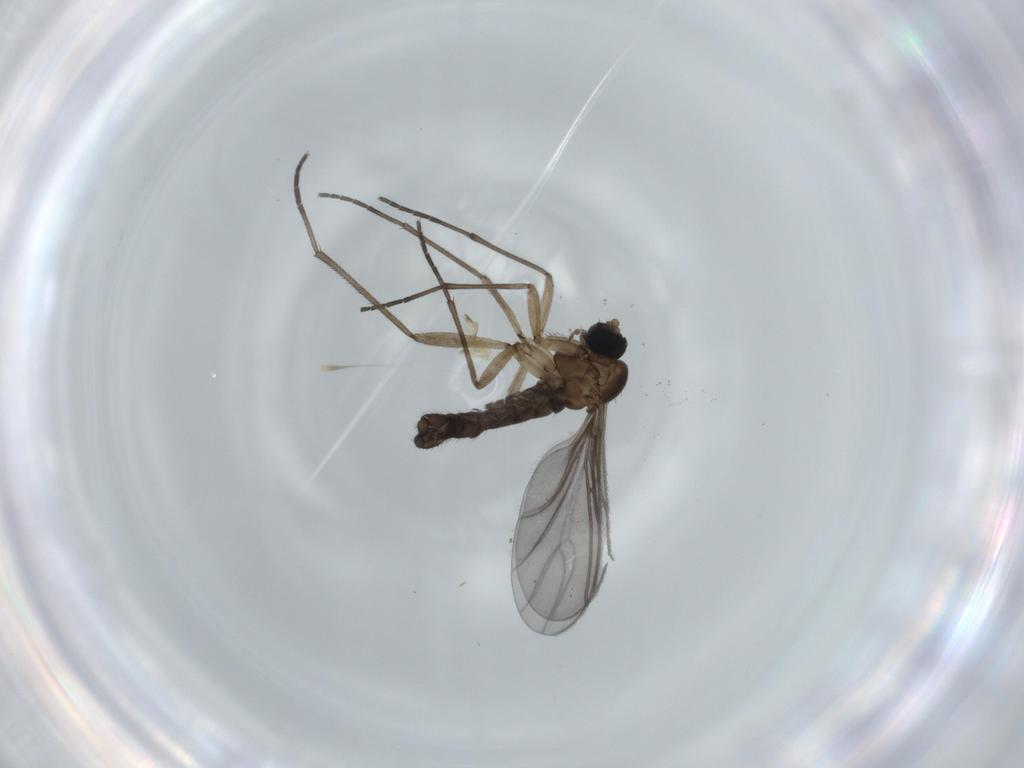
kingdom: Animalia
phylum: Arthropoda
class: Insecta
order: Diptera
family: Sciaridae
